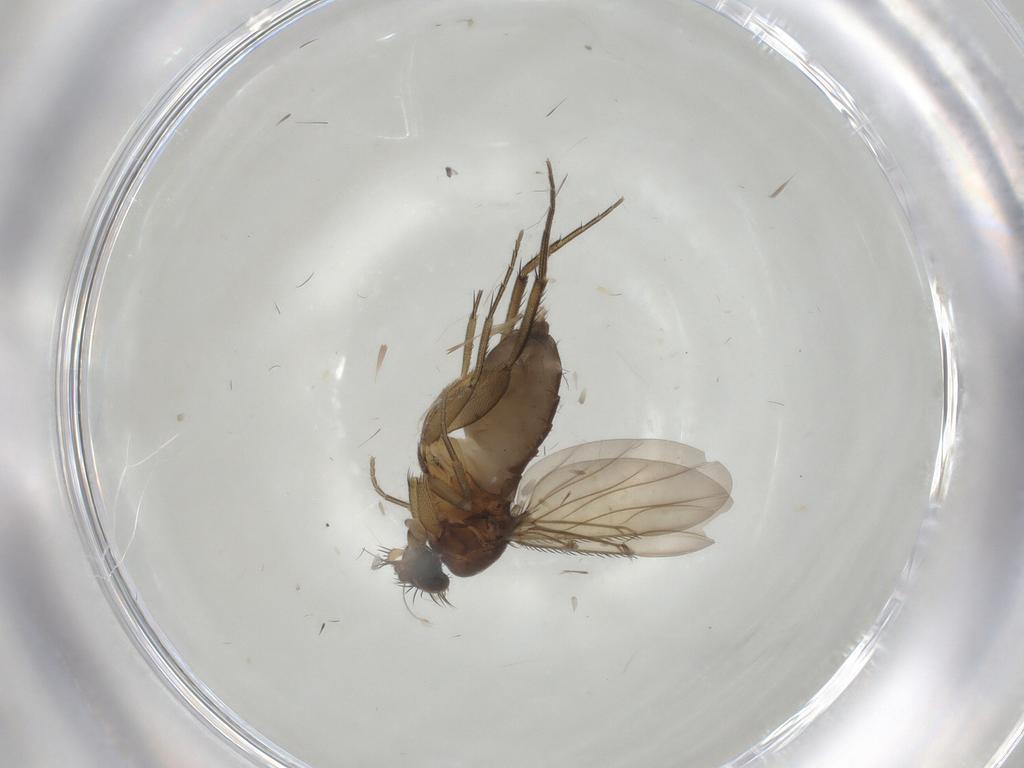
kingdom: Animalia
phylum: Arthropoda
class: Insecta
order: Diptera
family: Phoridae
